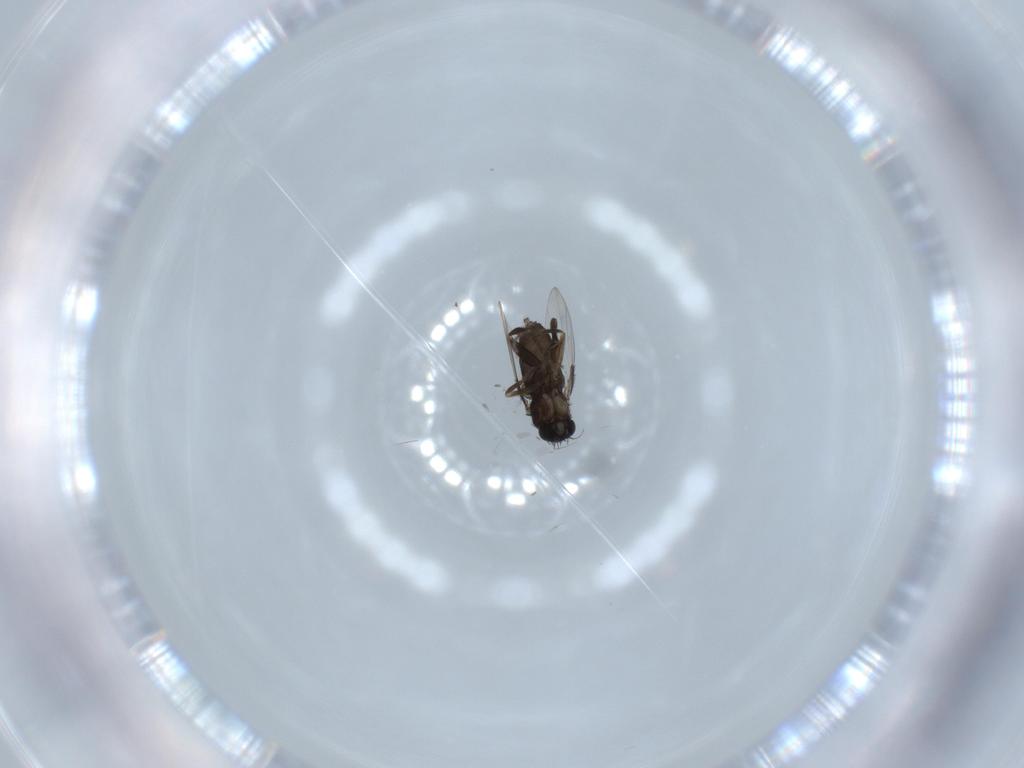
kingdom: Animalia
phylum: Arthropoda
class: Insecta
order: Diptera
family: Phoridae
